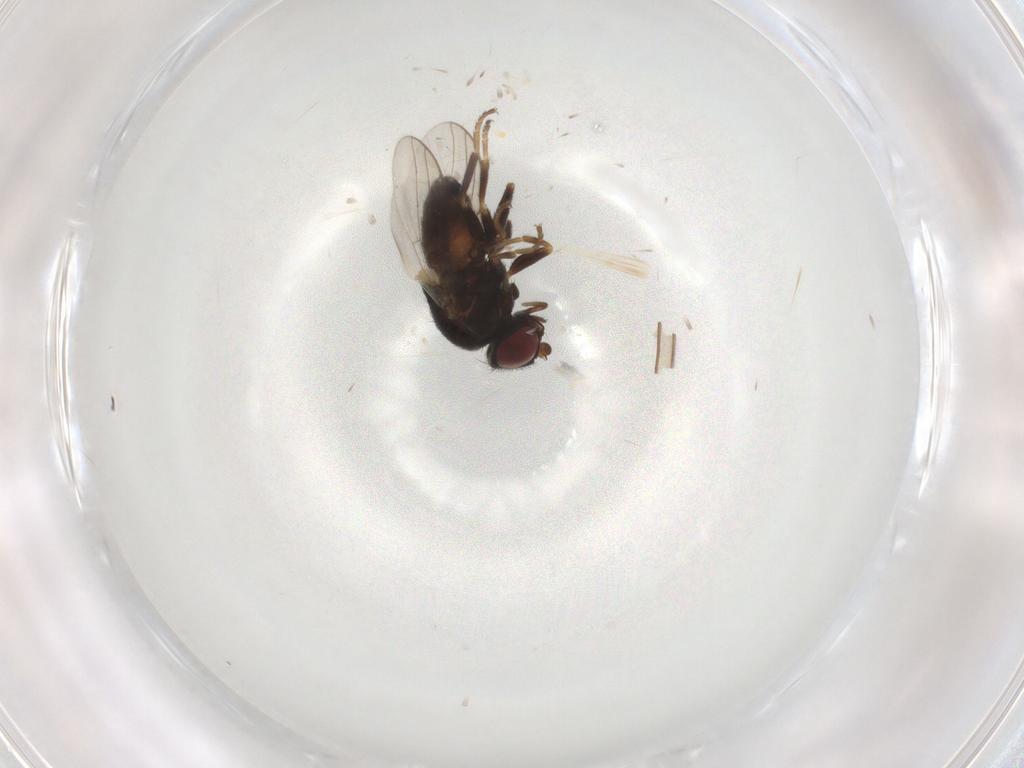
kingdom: Animalia
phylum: Arthropoda
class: Insecta
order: Diptera
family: Chloropidae
